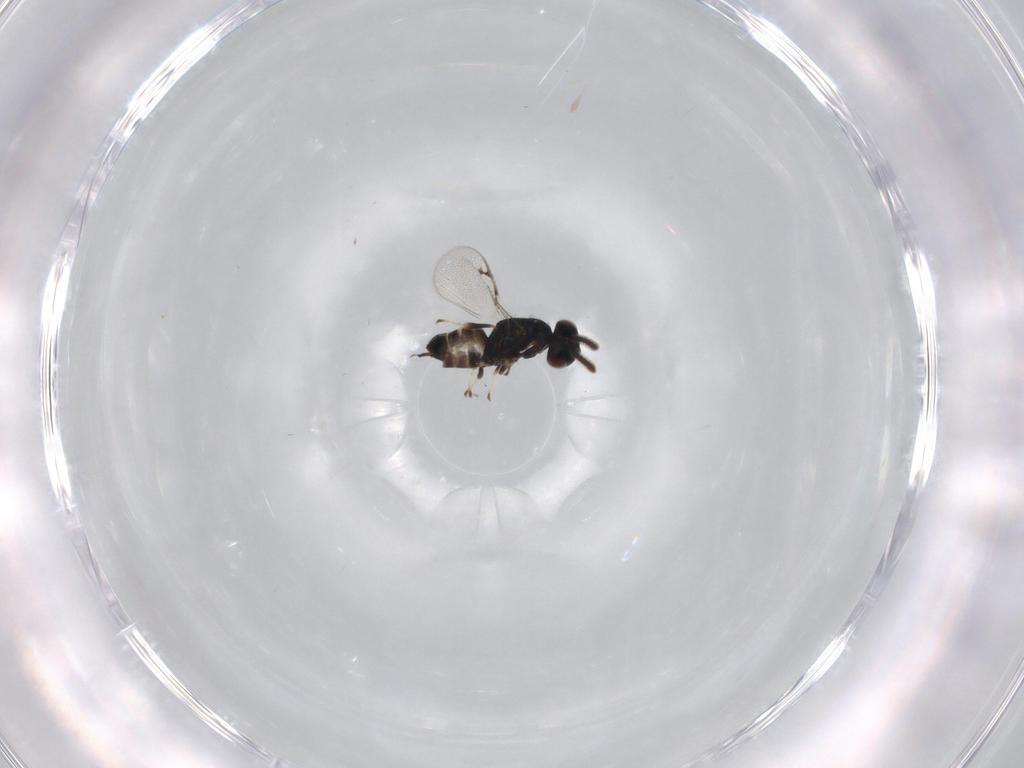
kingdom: Animalia
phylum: Arthropoda
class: Insecta
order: Hymenoptera
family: Pteromalidae
